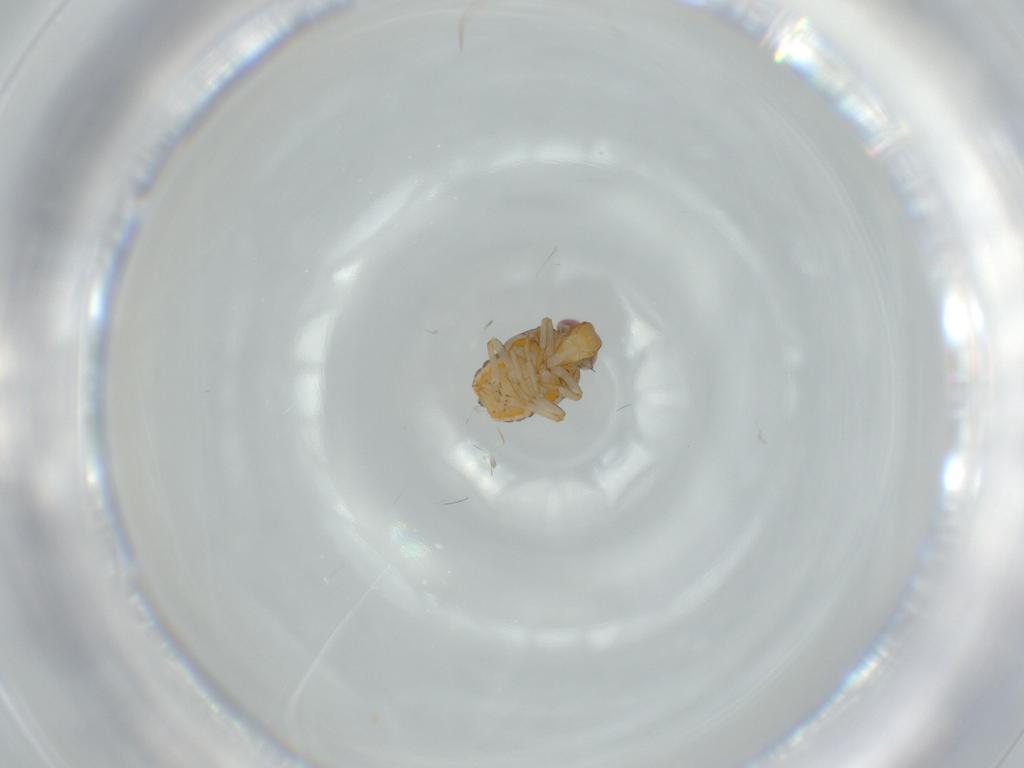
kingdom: Animalia
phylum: Arthropoda
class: Insecta
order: Hemiptera
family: Issidae
